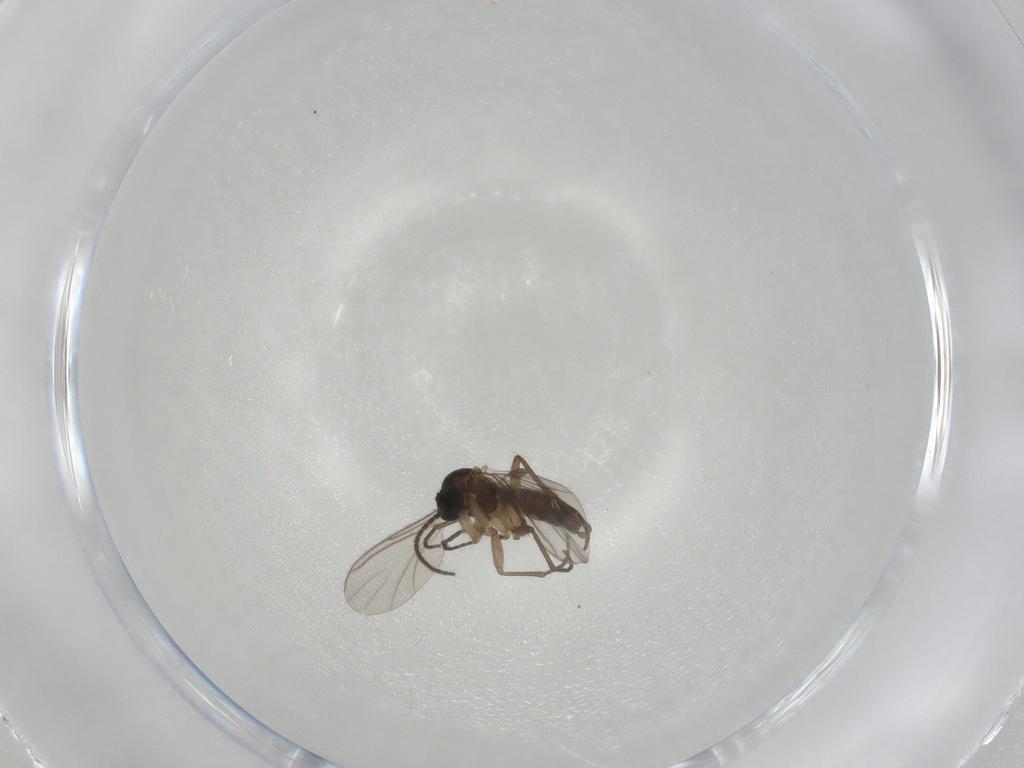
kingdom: Animalia
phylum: Arthropoda
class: Insecta
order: Diptera
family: Sciaridae
